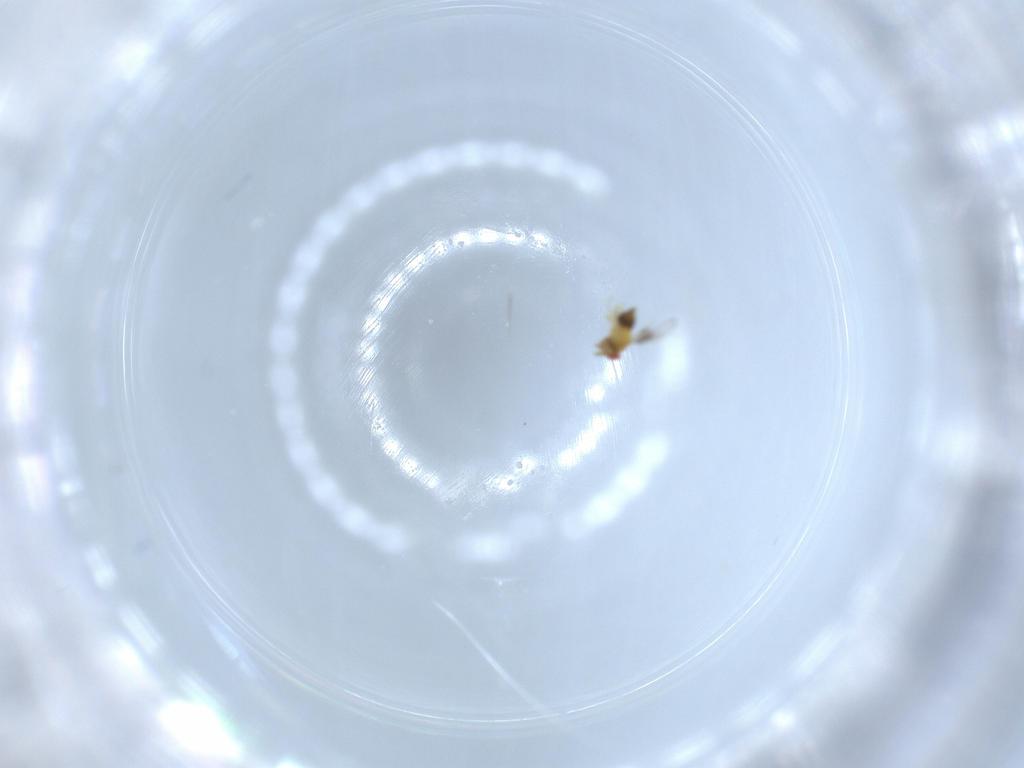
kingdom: Animalia
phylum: Arthropoda
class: Insecta
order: Hymenoptera
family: Trichogrammatidae
